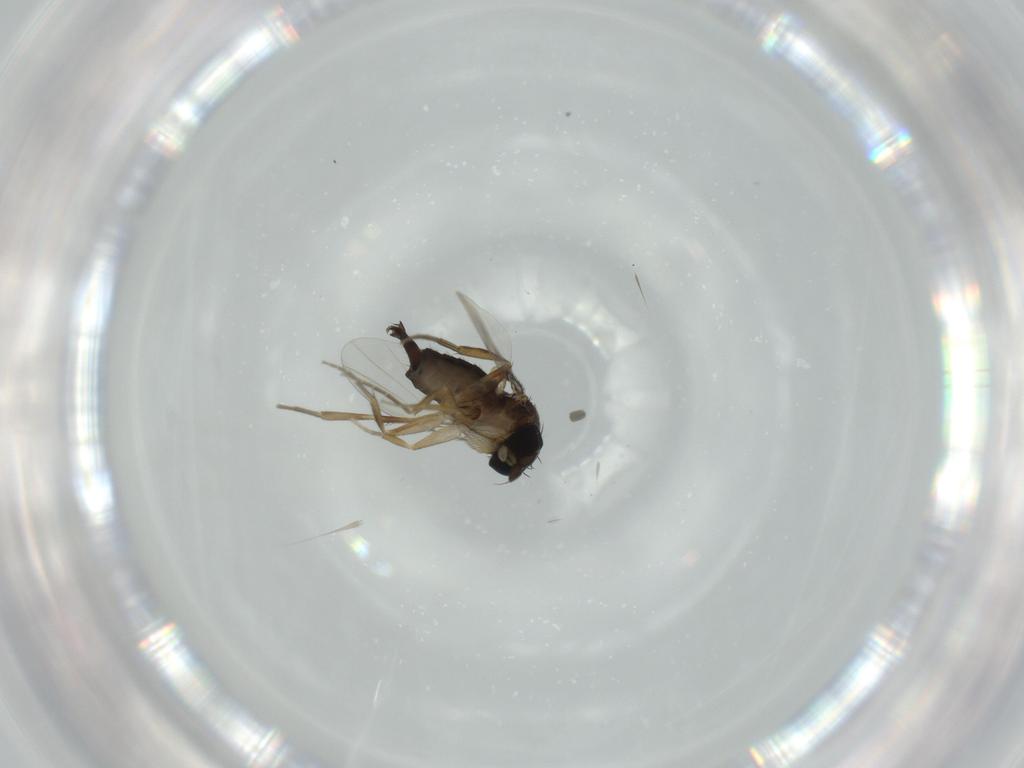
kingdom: Animalia
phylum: Arthropoda
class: Insecta
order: Diptera
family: Phoridae
